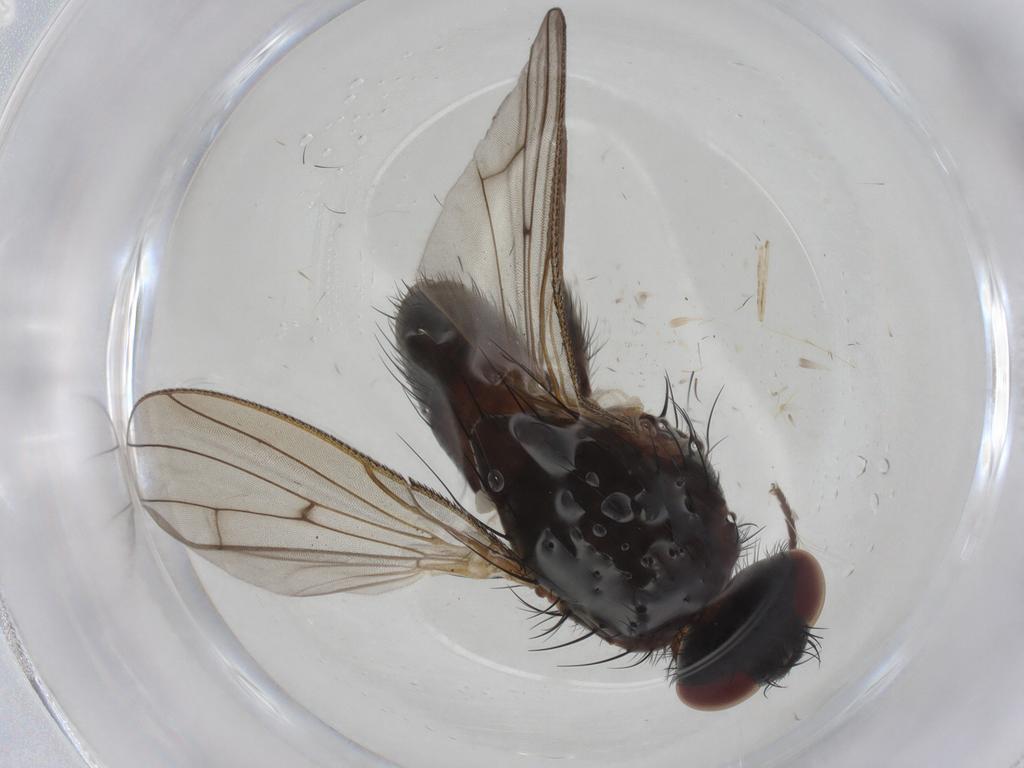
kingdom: Animalia
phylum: Arthropoda
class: Insecta
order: Diptera
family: Anthomyiidae
